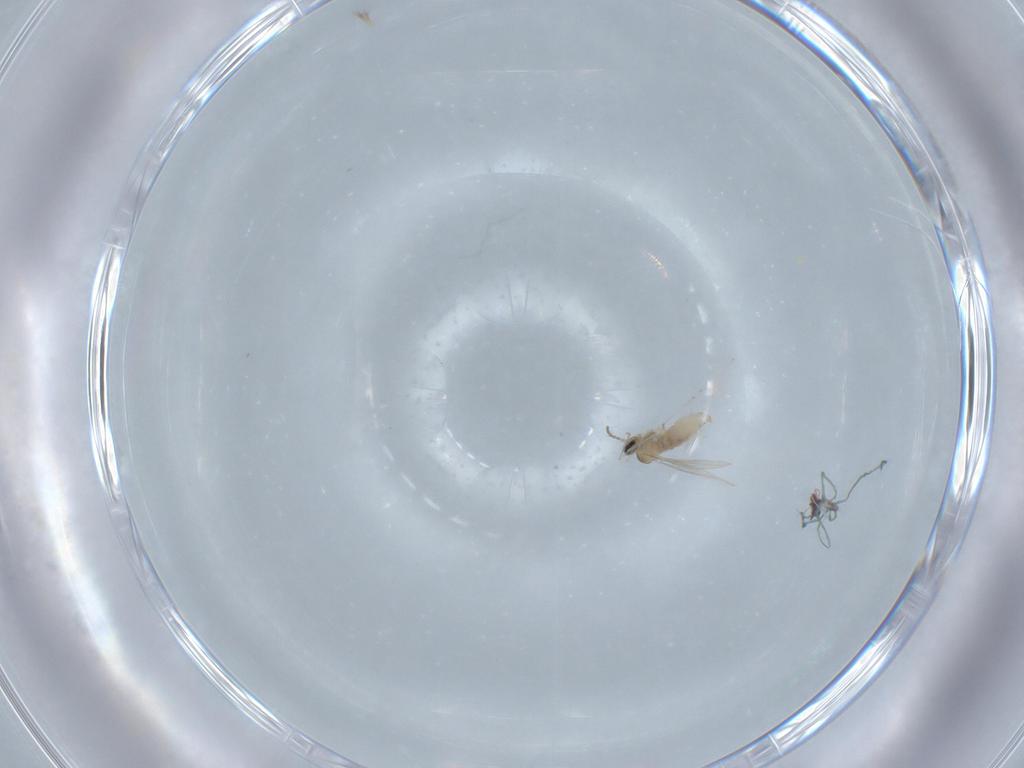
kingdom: Animalia
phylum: Arthropoda
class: Insecta
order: Diptera
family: Cecidomyiidae
